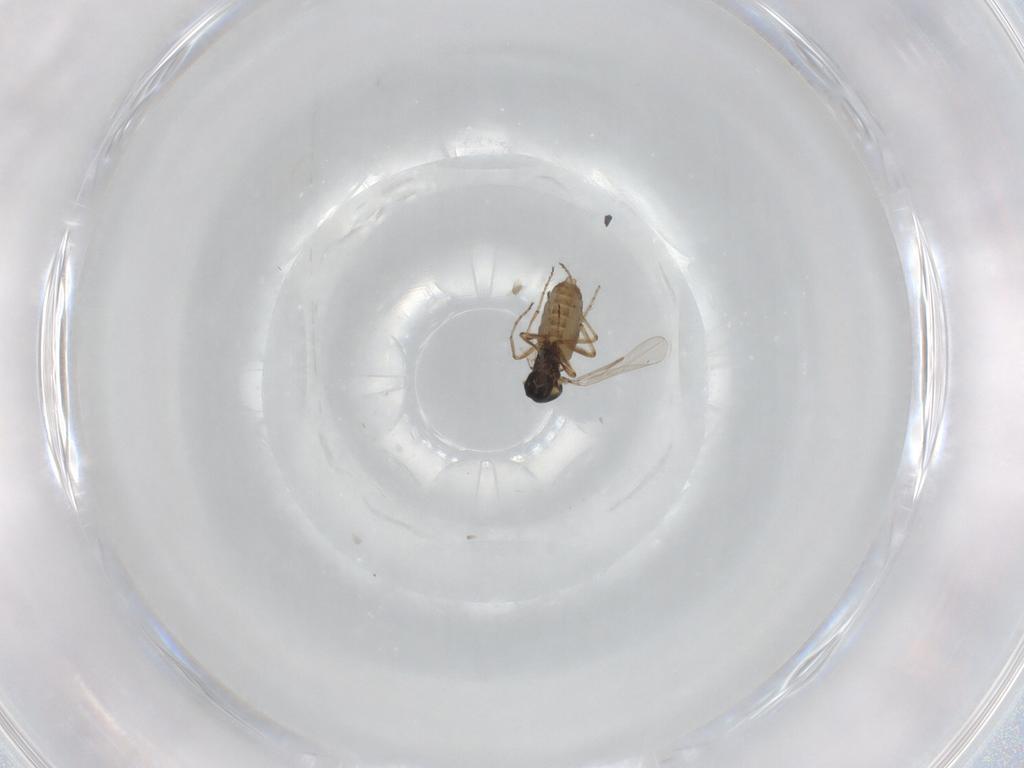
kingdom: Animalia
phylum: Arthropoda
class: Insecta
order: Diptera
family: Ceratopogonidae
